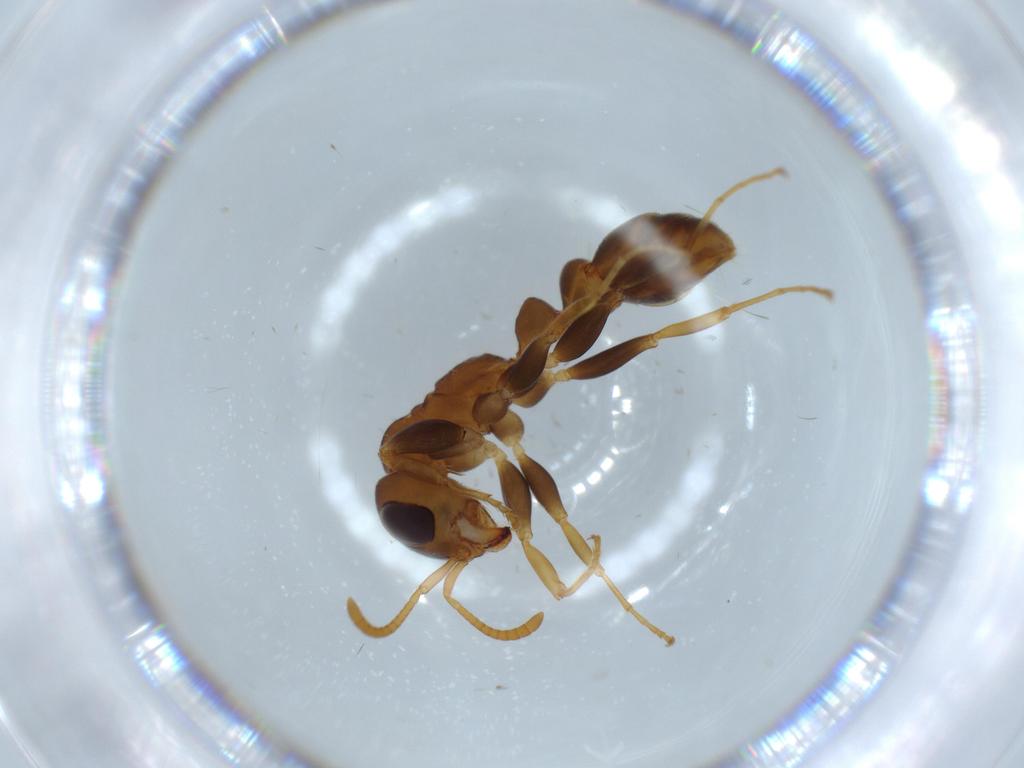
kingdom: Animalia
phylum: Arthropoda
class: Insecta
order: Hymenoptera
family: Formicidae
